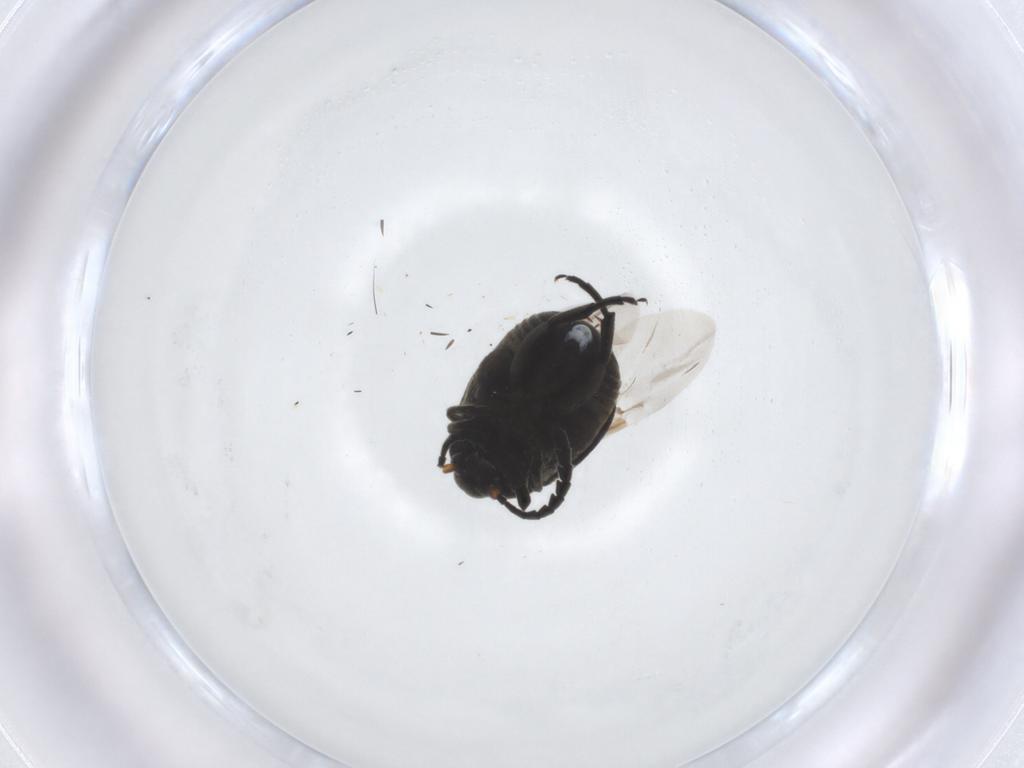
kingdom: Animalia
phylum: Arthropoda
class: Insecta
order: Coleoptera
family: Chrysomelidae
